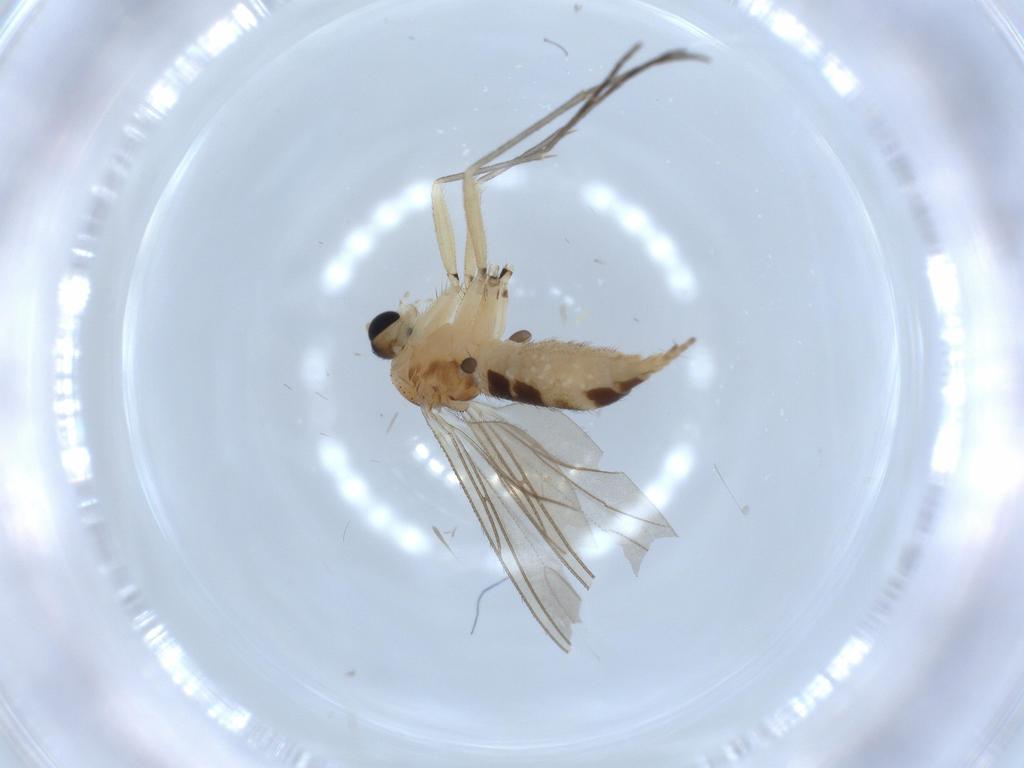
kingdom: Animalia
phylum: Arthropoda
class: Insecta
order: Diptera
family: Sciaridae
